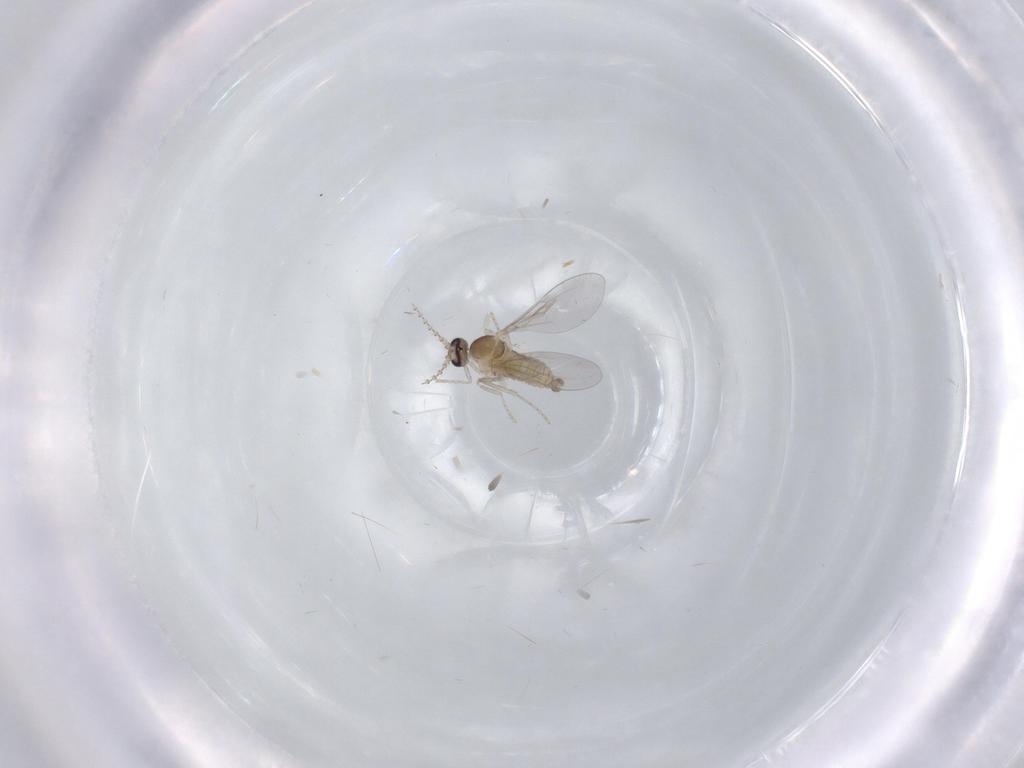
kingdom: Animalia
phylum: Arthropoda
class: Insecta
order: Diptera
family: Cecidomyiidae
